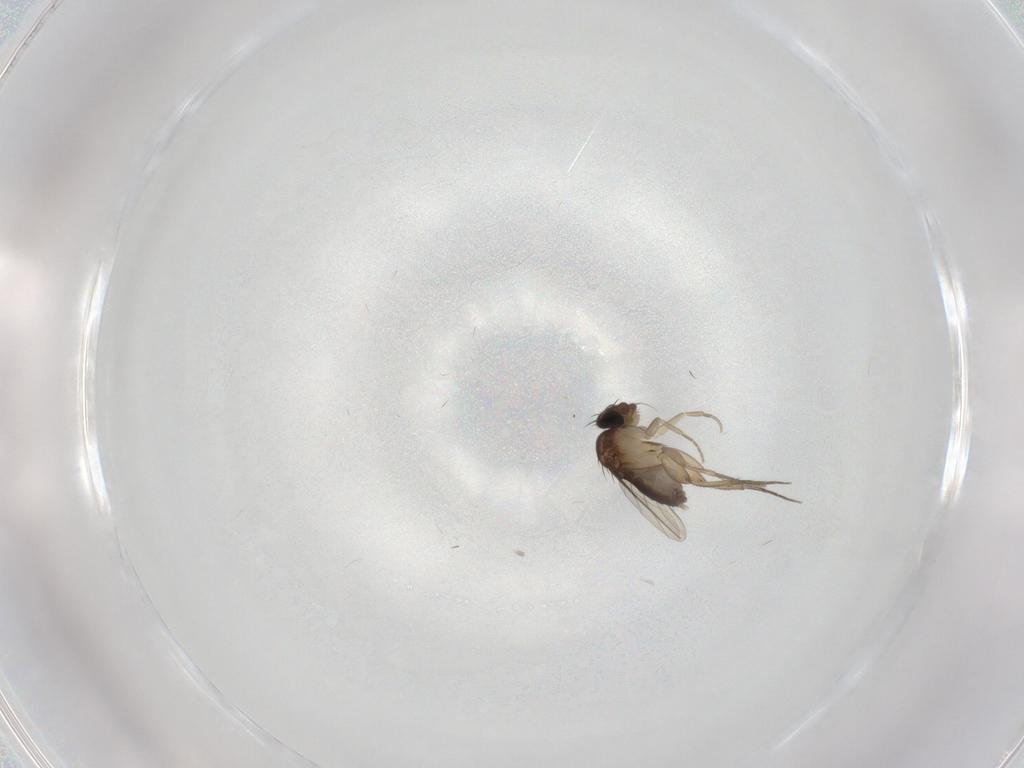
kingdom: Animalia
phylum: Arthropoda
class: Insecta
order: Diptera
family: Phoridae
